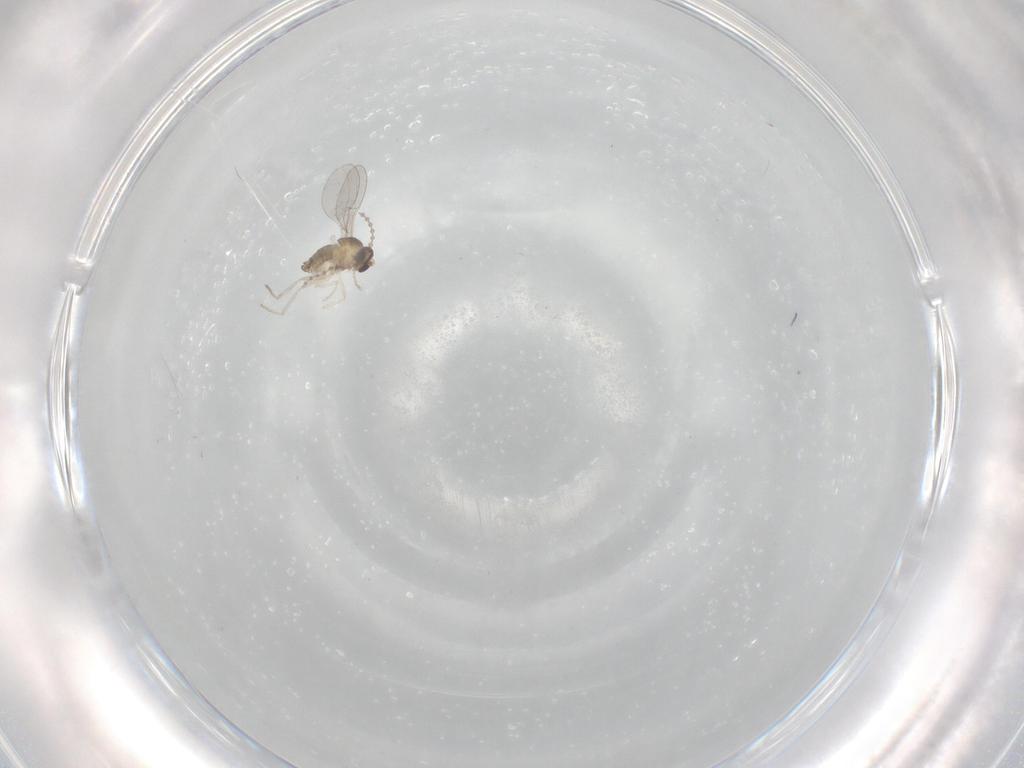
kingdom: Animalia
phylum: Arthropoda
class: Insecta
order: Diptera
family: Cecidomyiidae
